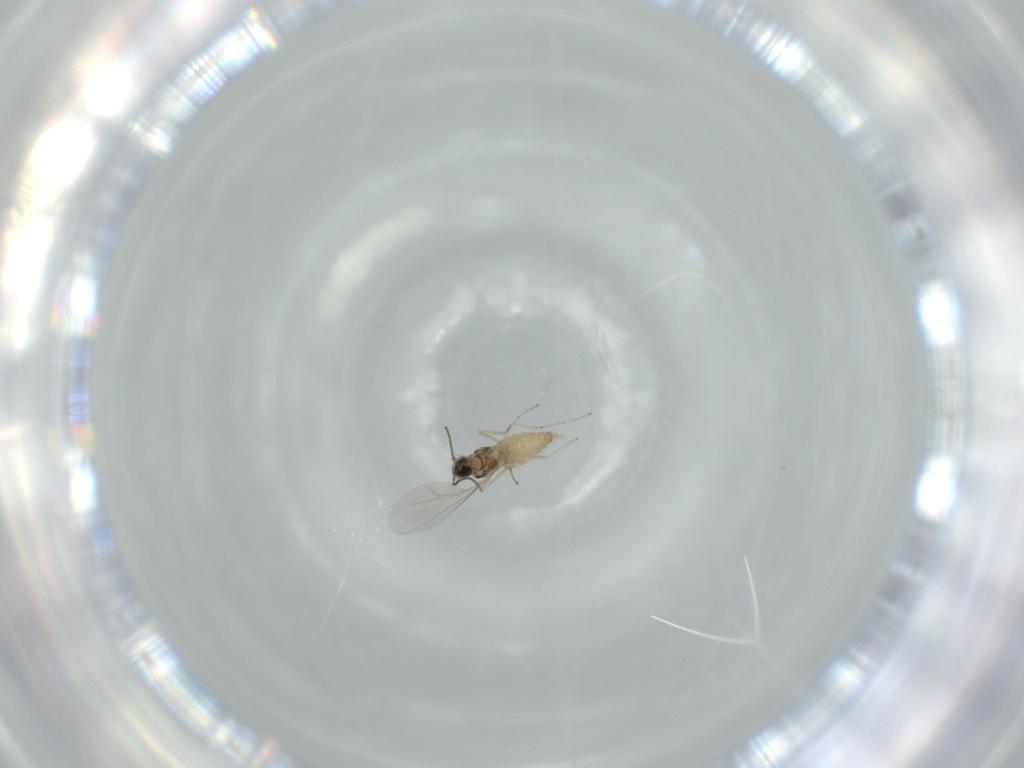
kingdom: Animalia
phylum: Arthropoda
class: Insecta
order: Diptera
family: Cecidomyiidae
